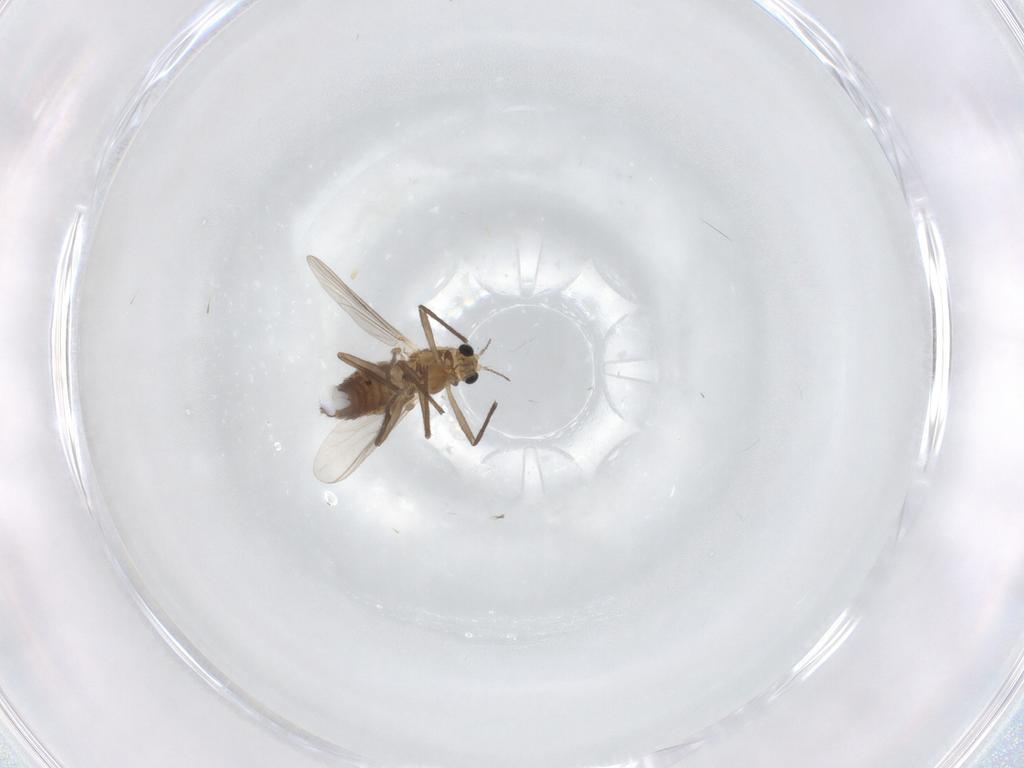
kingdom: Animalia
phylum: Arthropoda
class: Insecta
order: Diptera
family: Chironomidae
